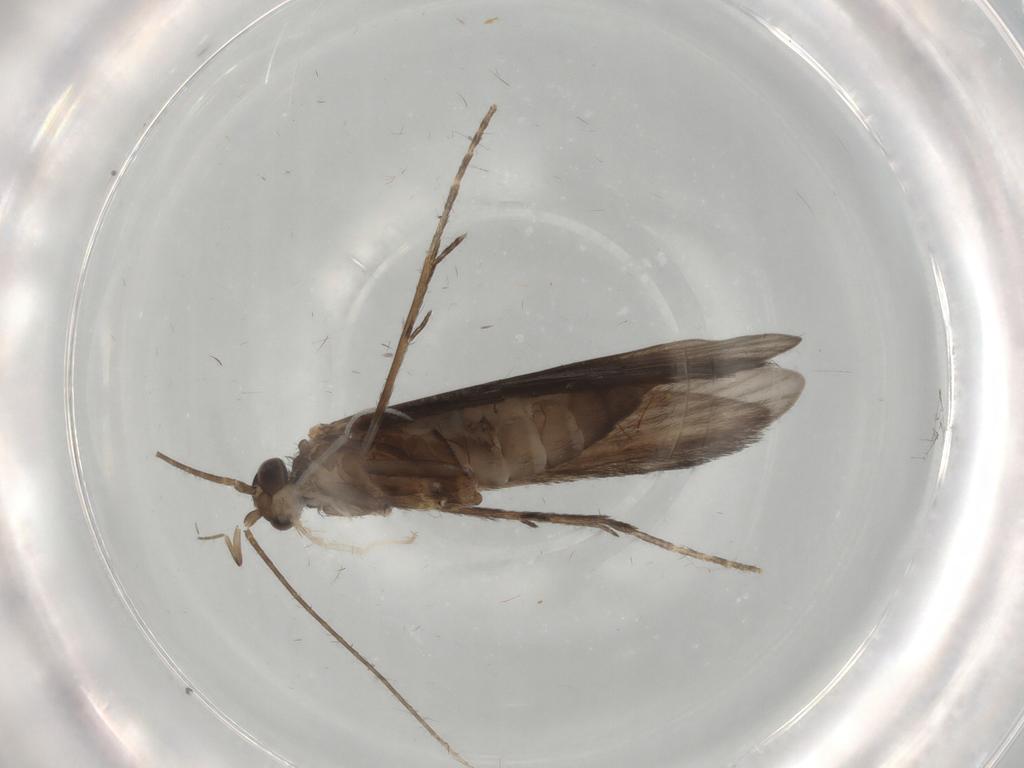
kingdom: Animalia
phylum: Arthropoda
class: Insecta
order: Trichoptera
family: Xiphocentronidae
